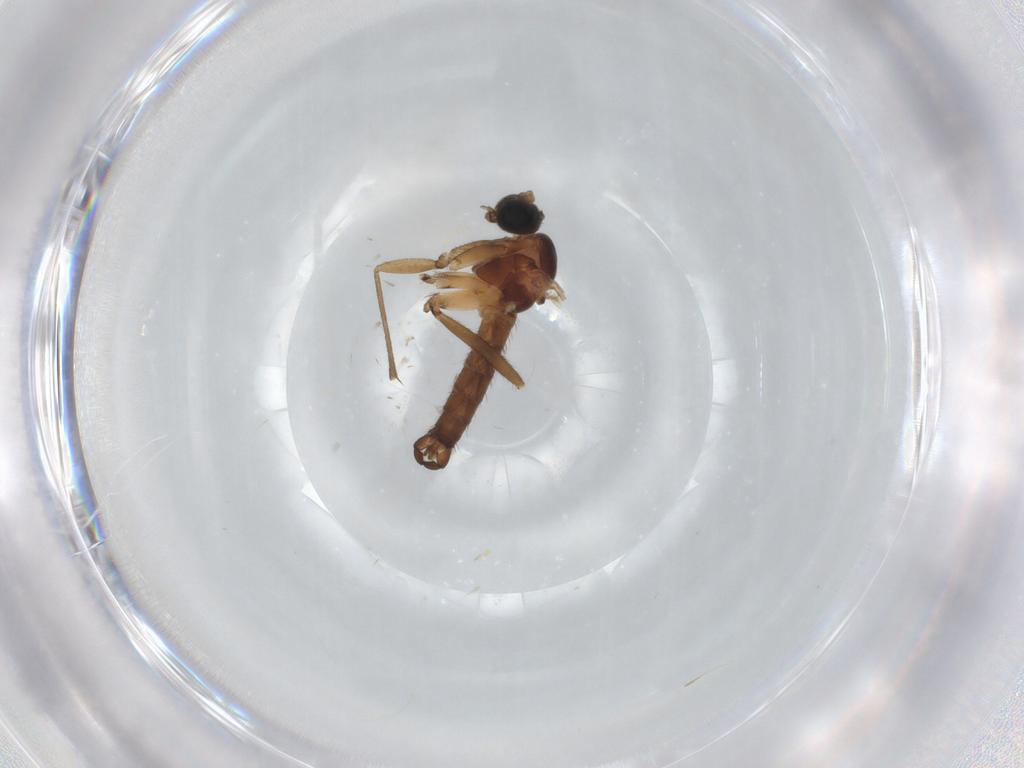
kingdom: Animalia
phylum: Arthropoda
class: Insecta
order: Diptera
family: Sciaridae
